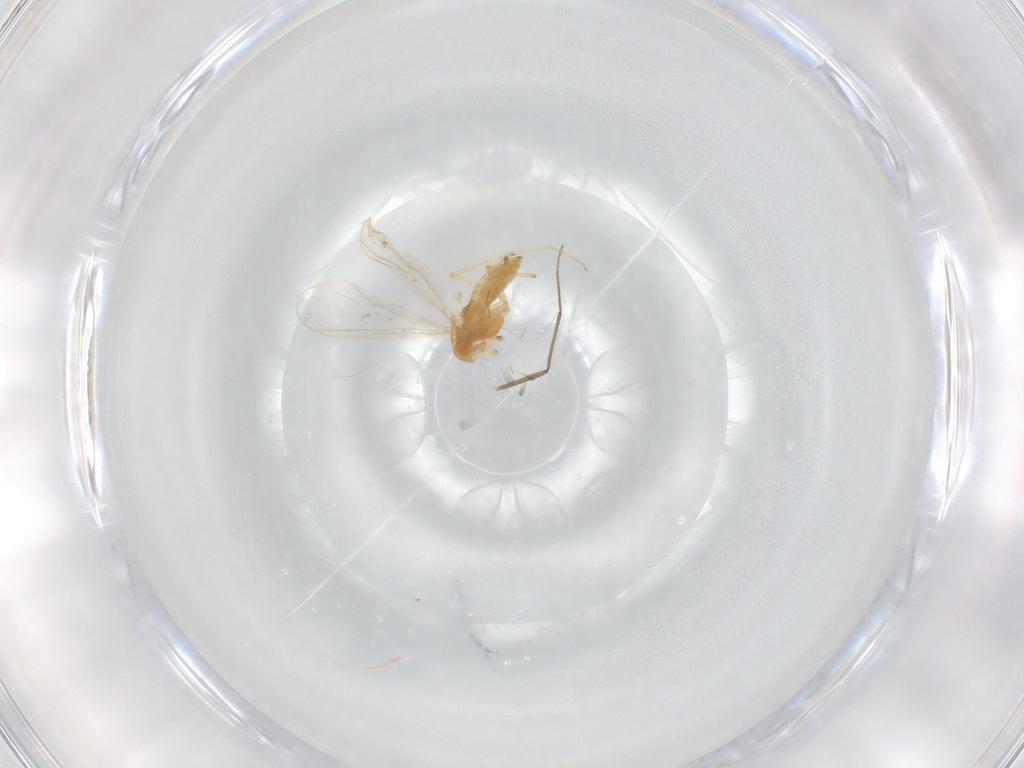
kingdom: Animalia
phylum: Arthropoda
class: Insecta
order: Diptera
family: Chironomidae
